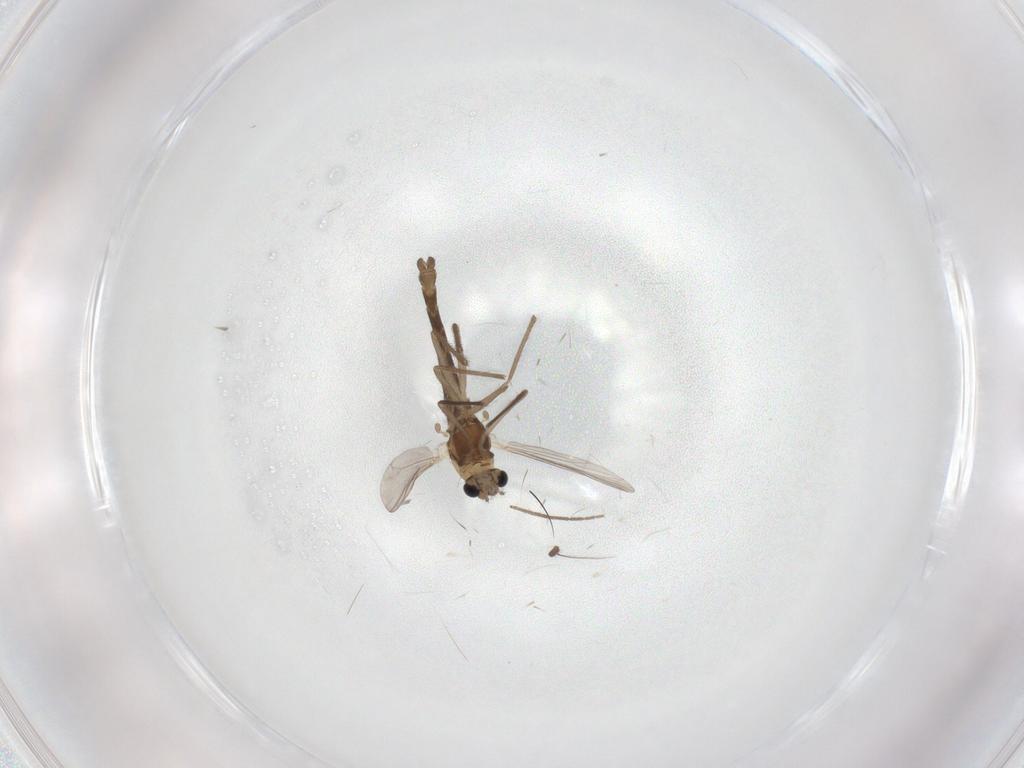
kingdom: Animalia
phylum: Arthropoda
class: Insecta
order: Diptera
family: Chironomidae
